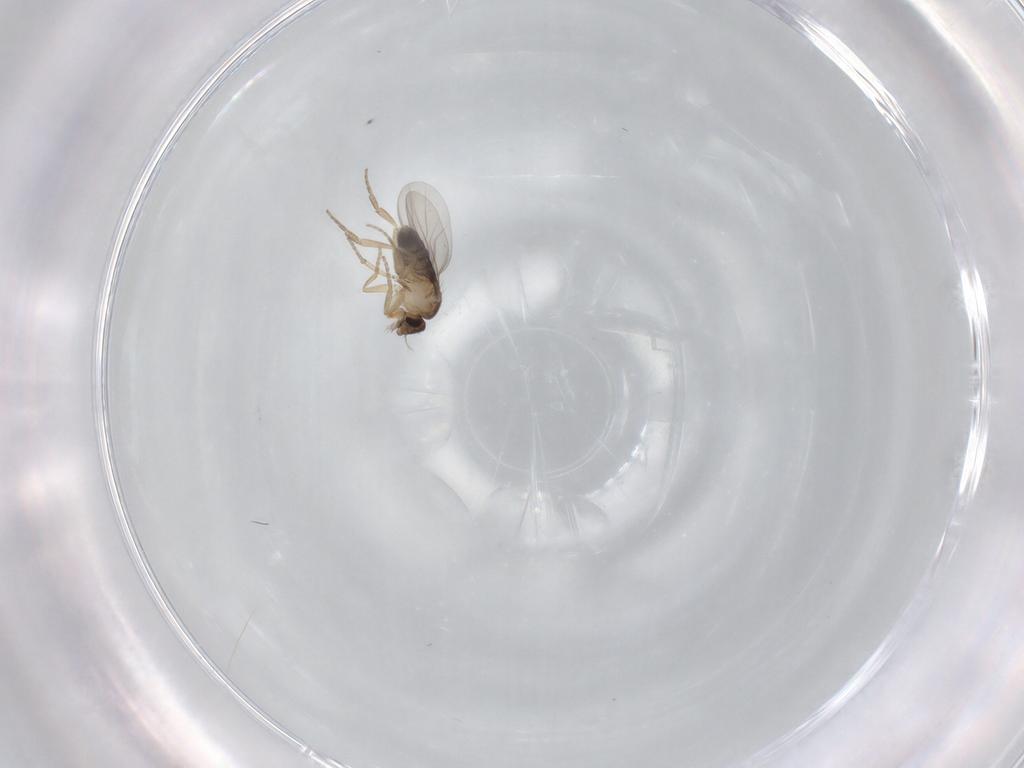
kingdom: Animalia
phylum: Arthropoda
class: Insecta
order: Diptera
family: Phoridae
